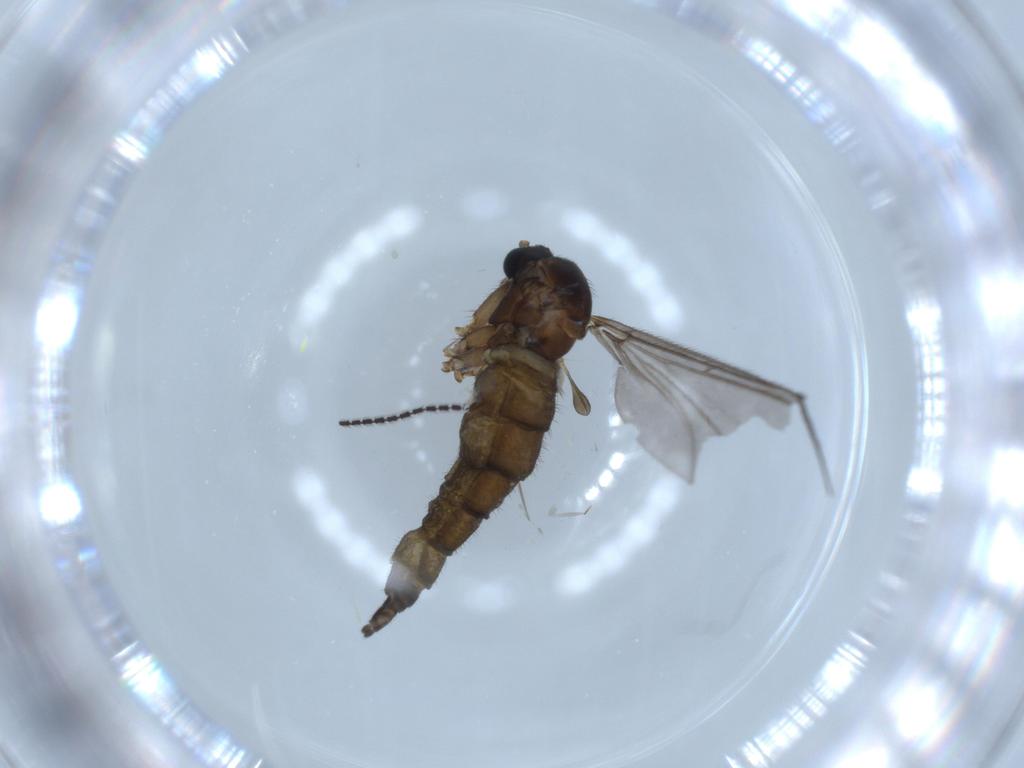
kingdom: Animalia
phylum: Arthropoda
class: Insecta
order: Diptera
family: Sciaridae
